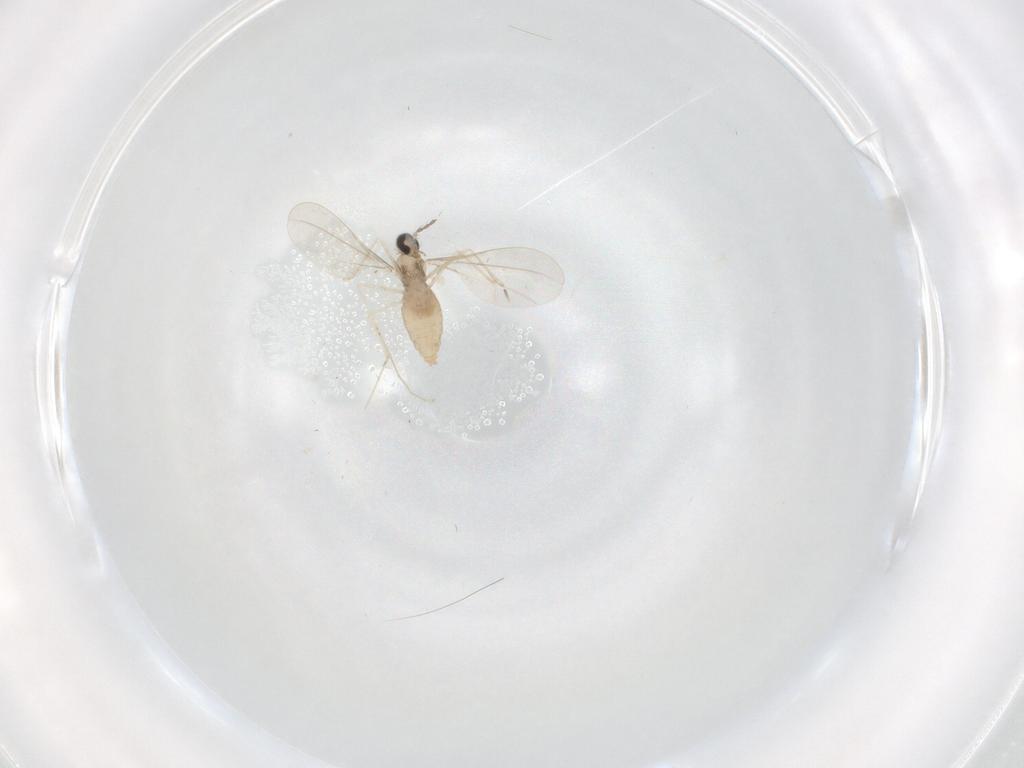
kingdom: Animalia
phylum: Arthropoda
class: Insecta
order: Diptera
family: Cecidomyiidae
